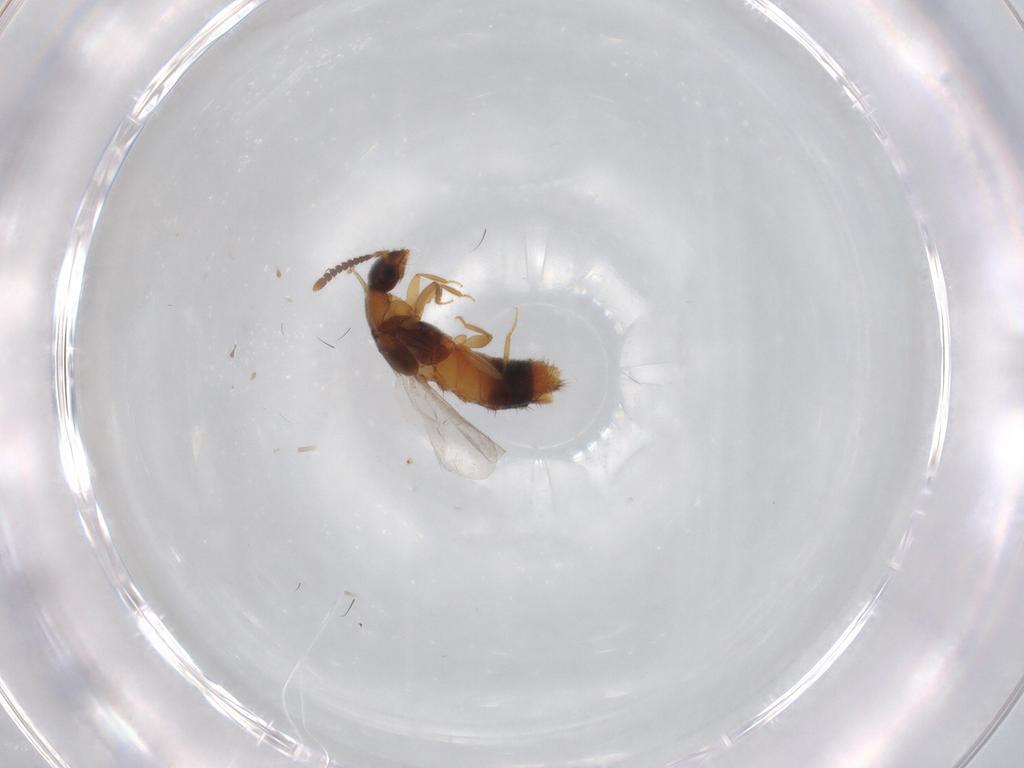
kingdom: Animalia
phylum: Arthropoda
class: Insecta
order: Coleoptera
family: Staphylinidae
